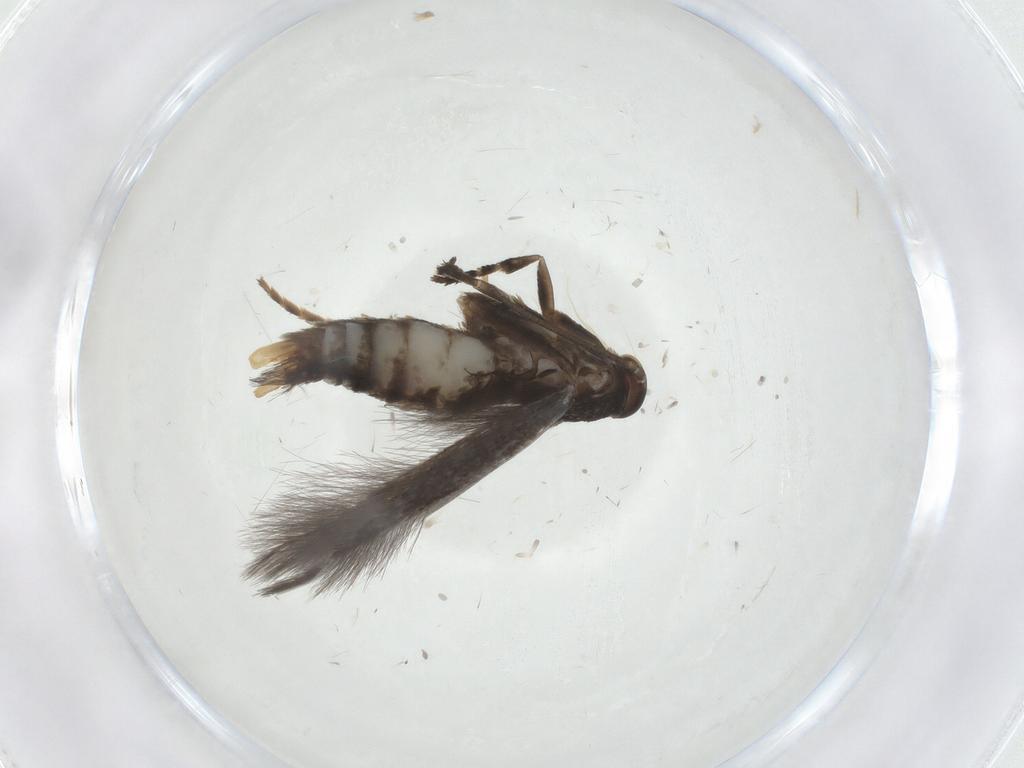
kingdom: Animalia
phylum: Arthropoda
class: Insecta
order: Lepidoptera
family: Elachistidae
